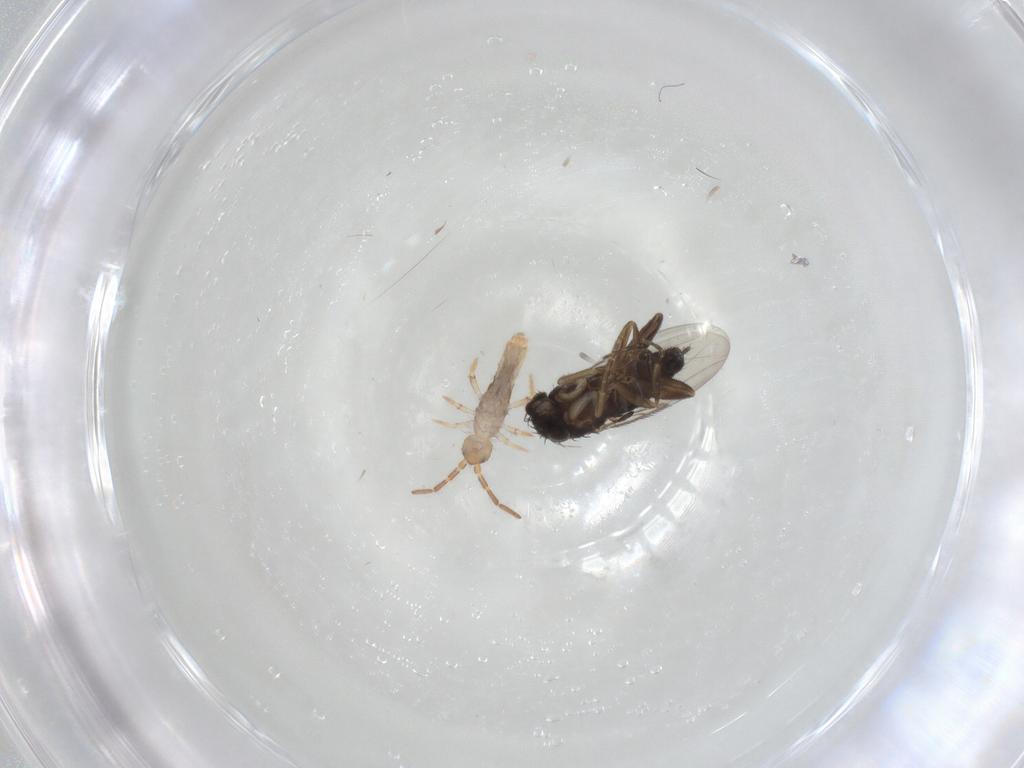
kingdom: Animalia
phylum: Arthropoda
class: Insecta
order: Diptera
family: Phoridae
